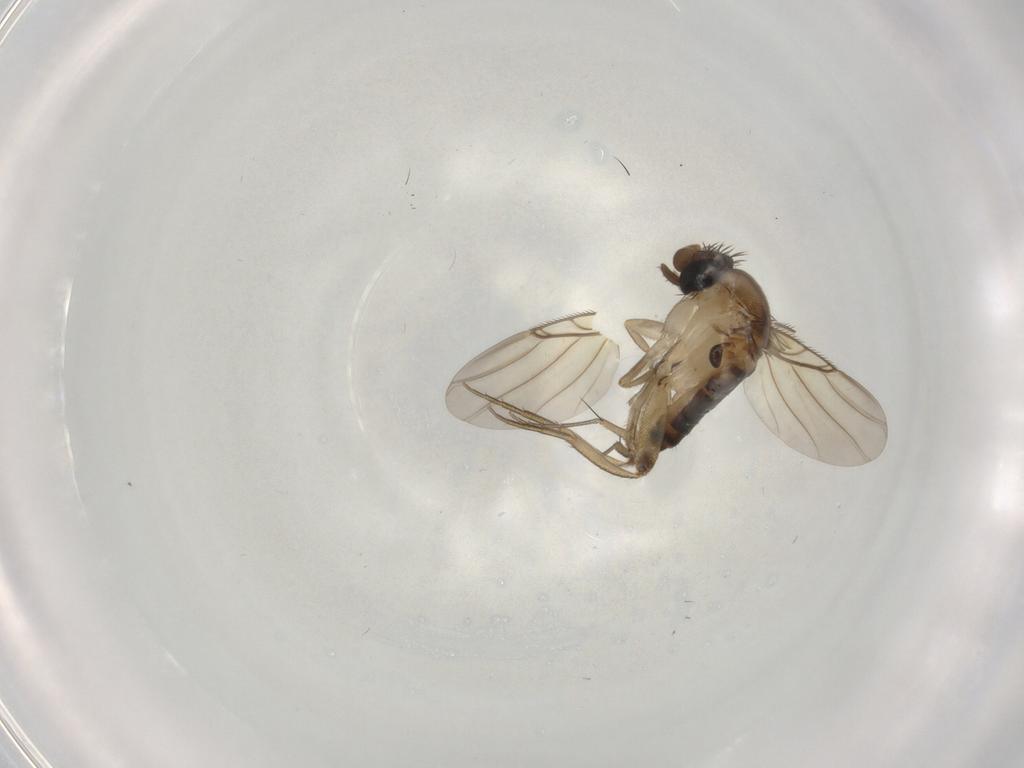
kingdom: Animalia
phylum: Arthropoda
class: Insecta
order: Diptera
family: Phoridae
